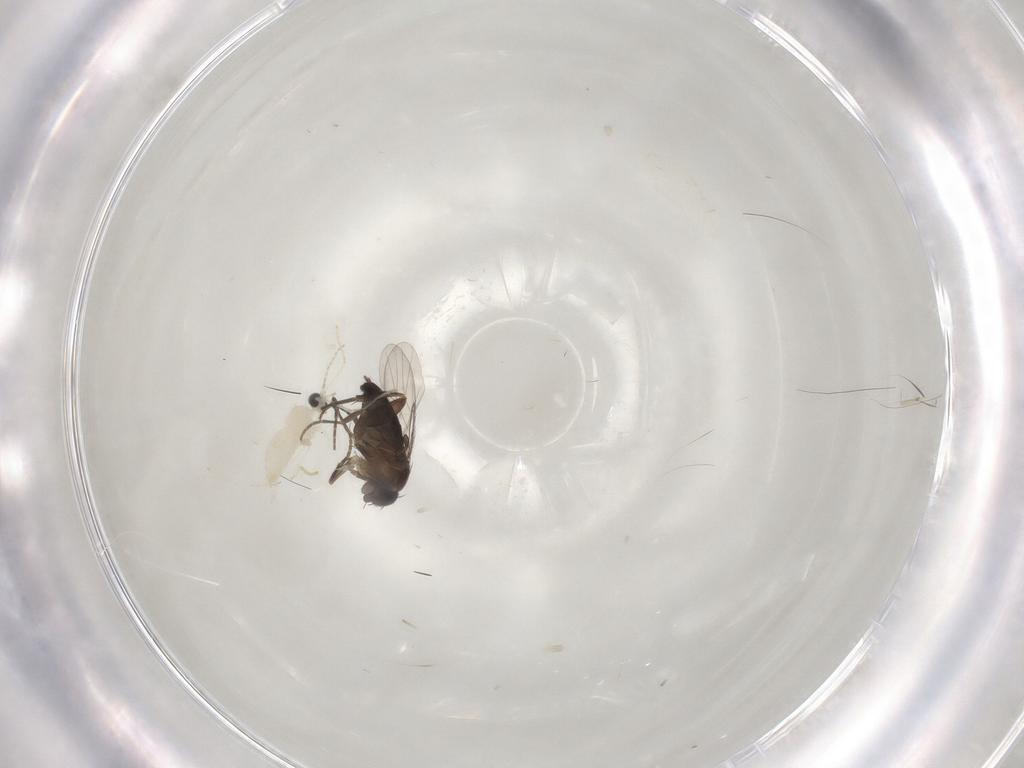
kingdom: Animalia
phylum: Arthropoda
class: Insecta
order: Diptera
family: Phoridae
